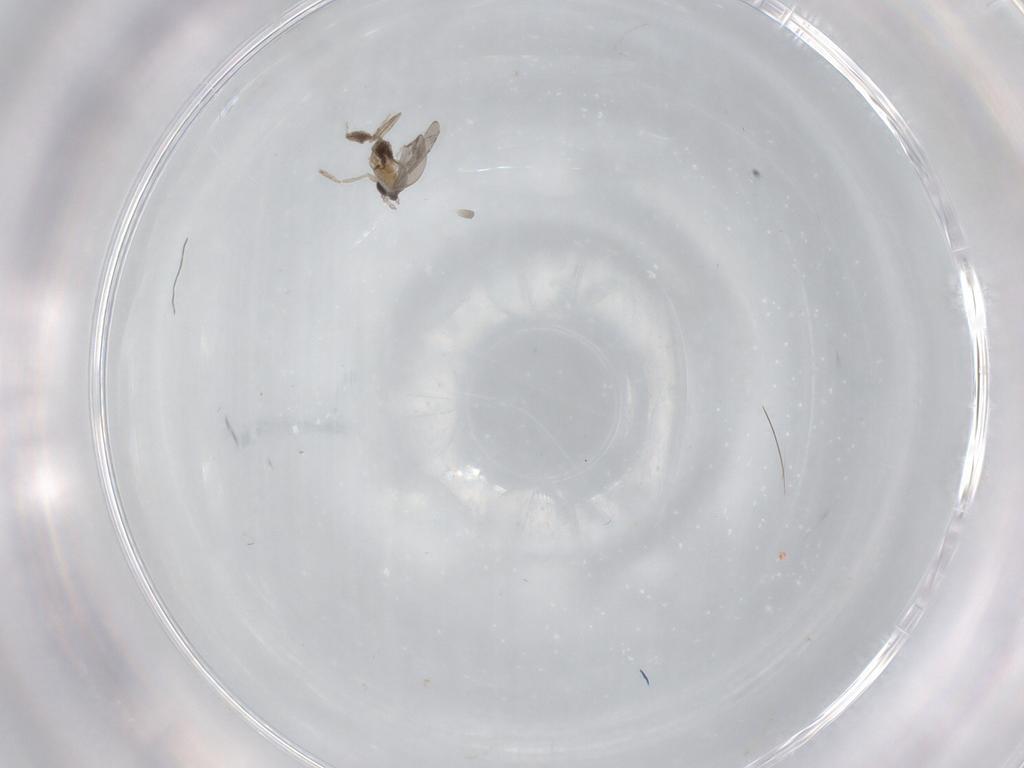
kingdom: Animalia
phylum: Arthropoda
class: Insecta
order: Diptera
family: Cecidomyiidae
